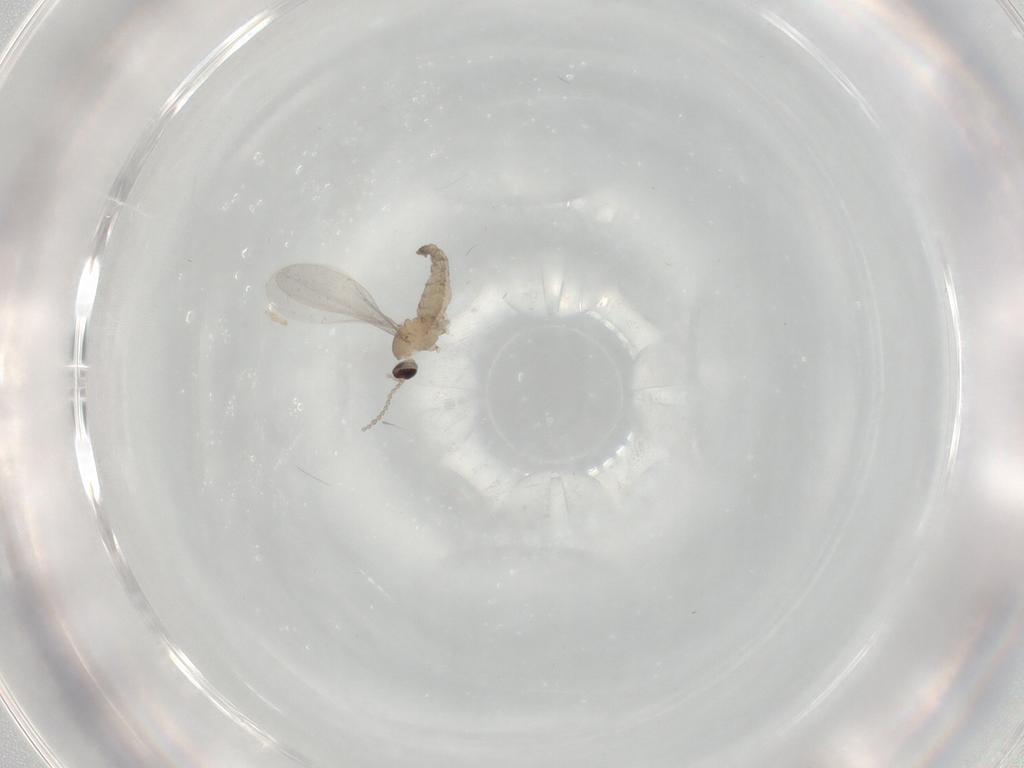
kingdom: Animalia
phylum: Arthropoda
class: Insecta
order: Diptera
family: Cecidomyiidae
